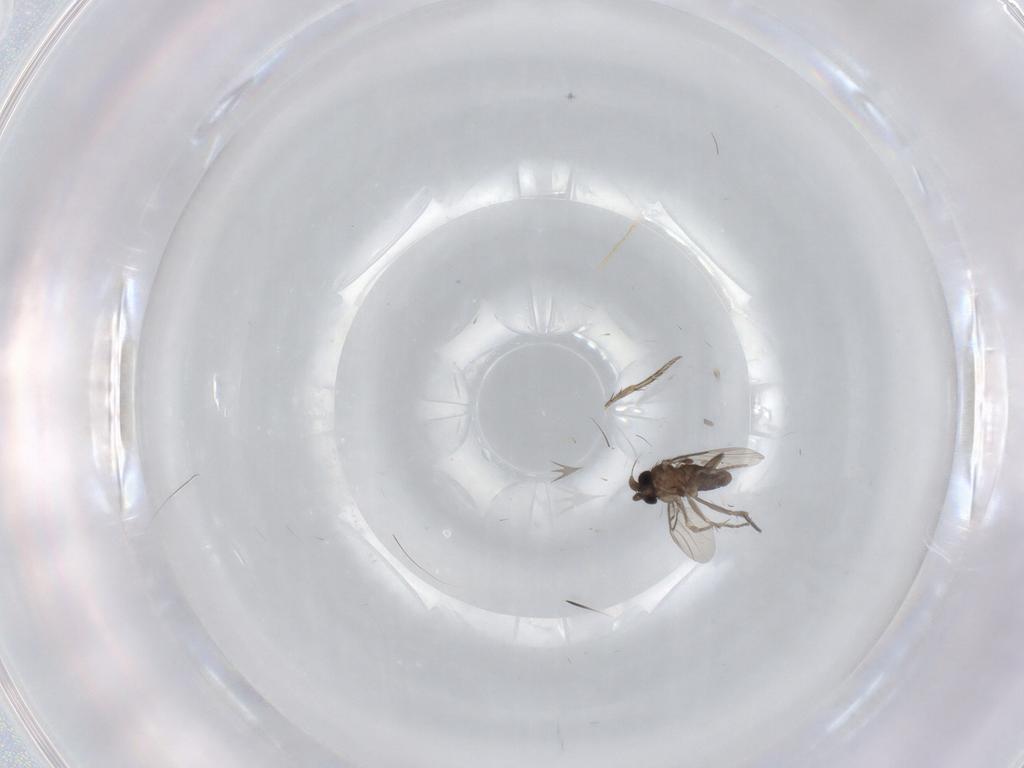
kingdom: Animalia
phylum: Arthropoda
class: Insecta
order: Diptera
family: Phoridae
